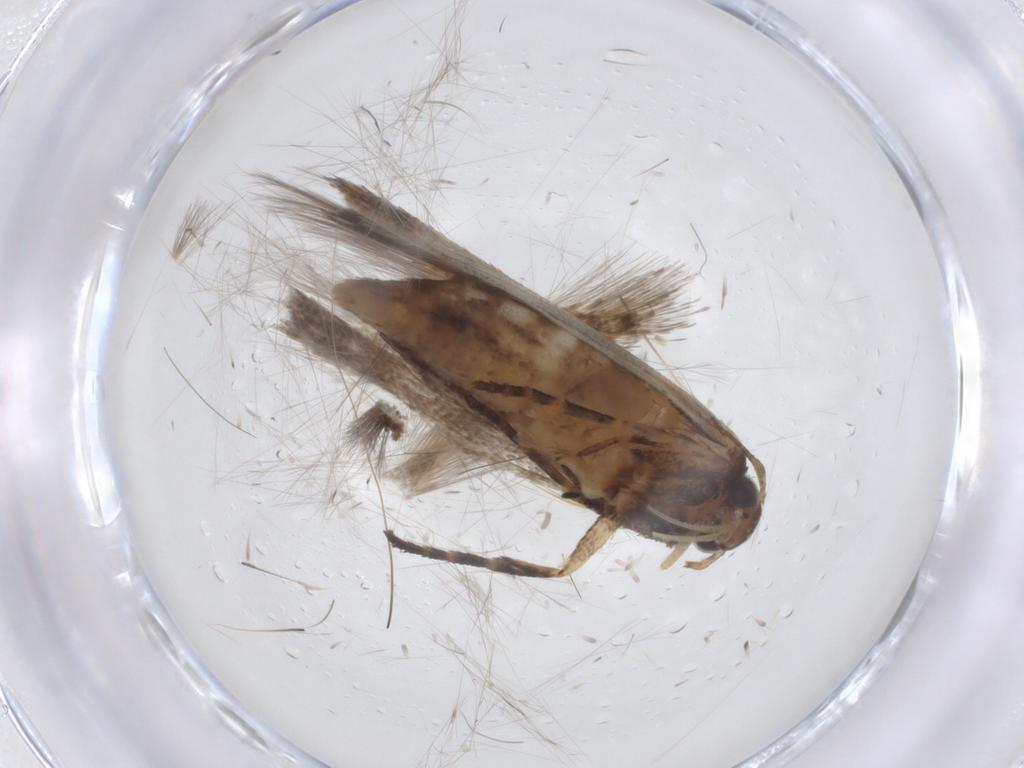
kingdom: Animalia
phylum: Arthropoda
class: Insecta
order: Lepidoptera
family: Gelechiidae
